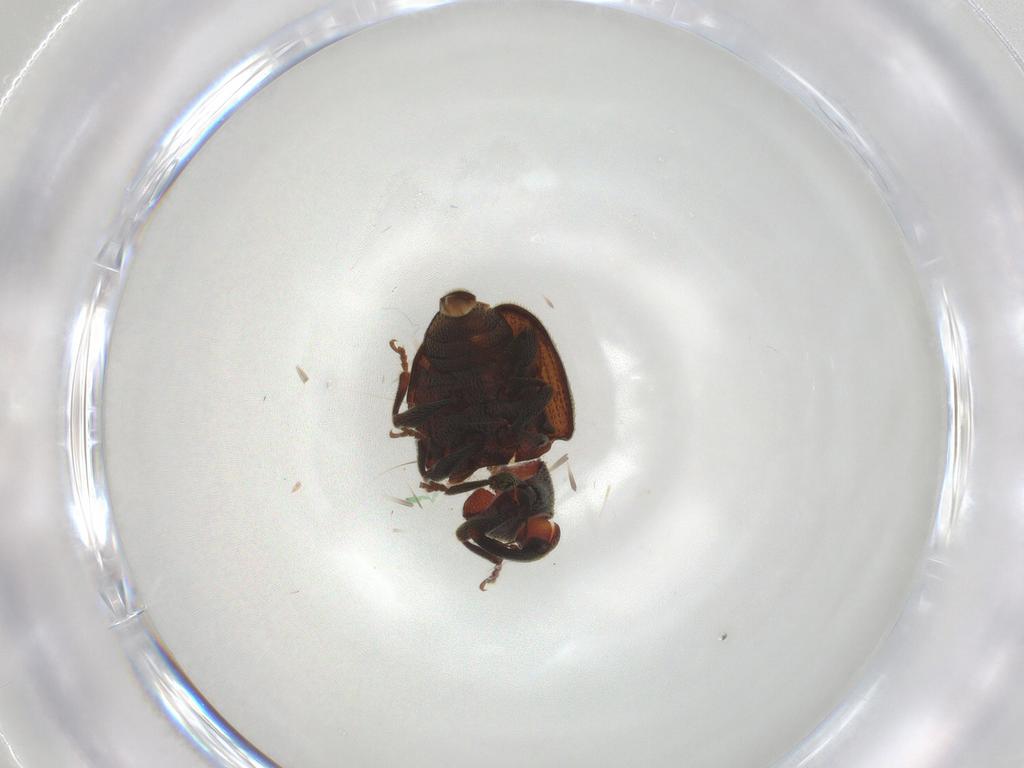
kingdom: Animalia
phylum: Arthropoda
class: Insecta
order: Coleoptera
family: Curculionidae
